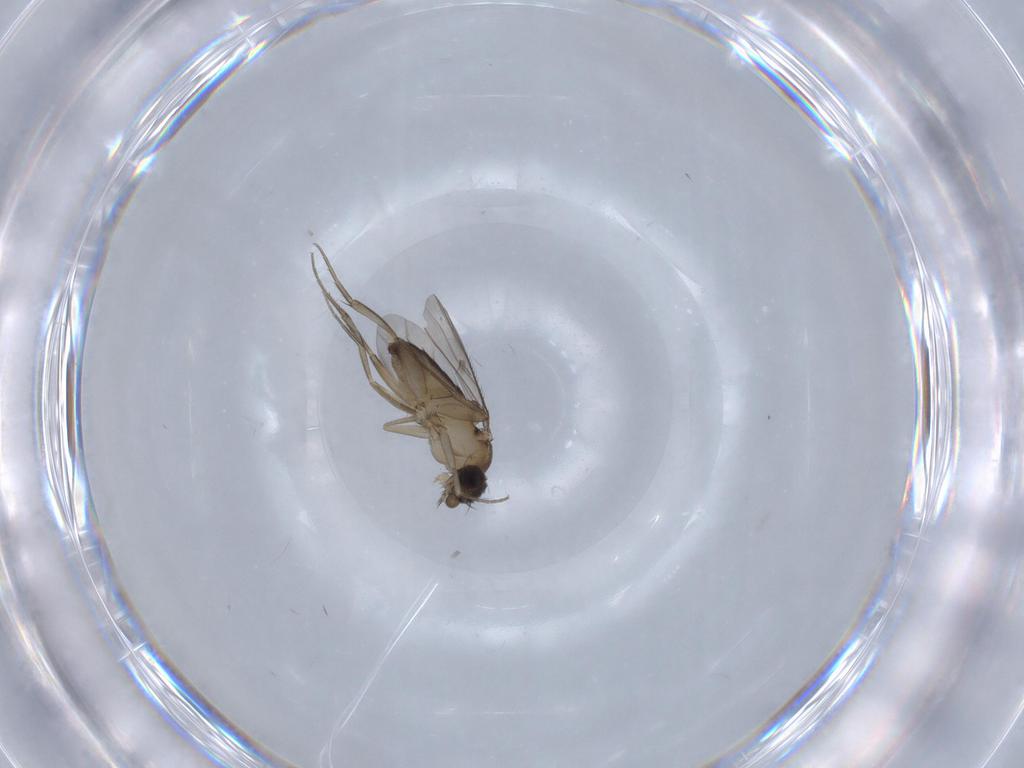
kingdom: Animalia
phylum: Arthropoda
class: Insecta
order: Diptera
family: Phoridae
